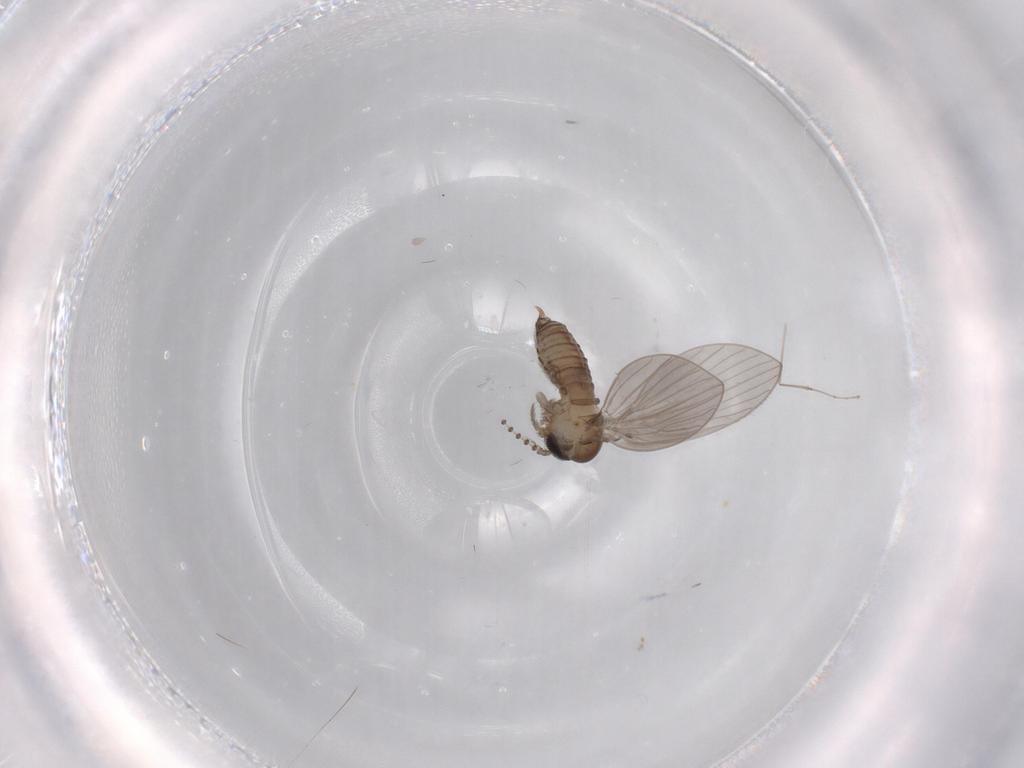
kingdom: Animalia
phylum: Arthropoda
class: Insecta
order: Diptera
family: Psychodidae
